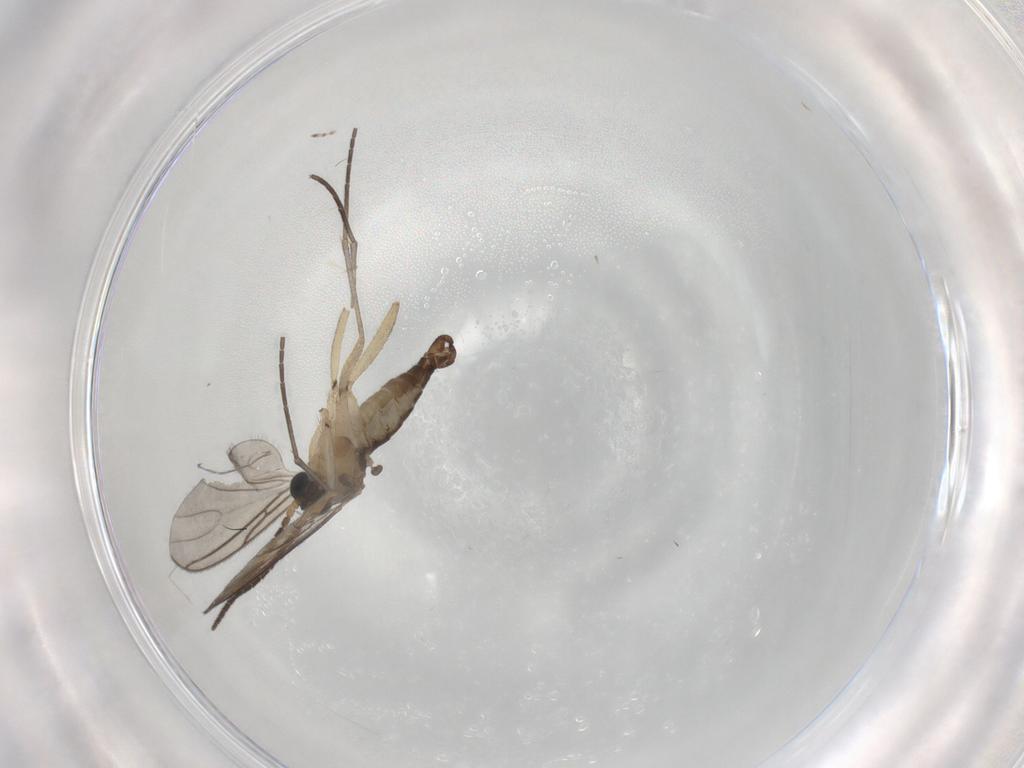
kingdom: Animalia
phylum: Arthropoda
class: Insecta
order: Diptera
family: Sciaridae
